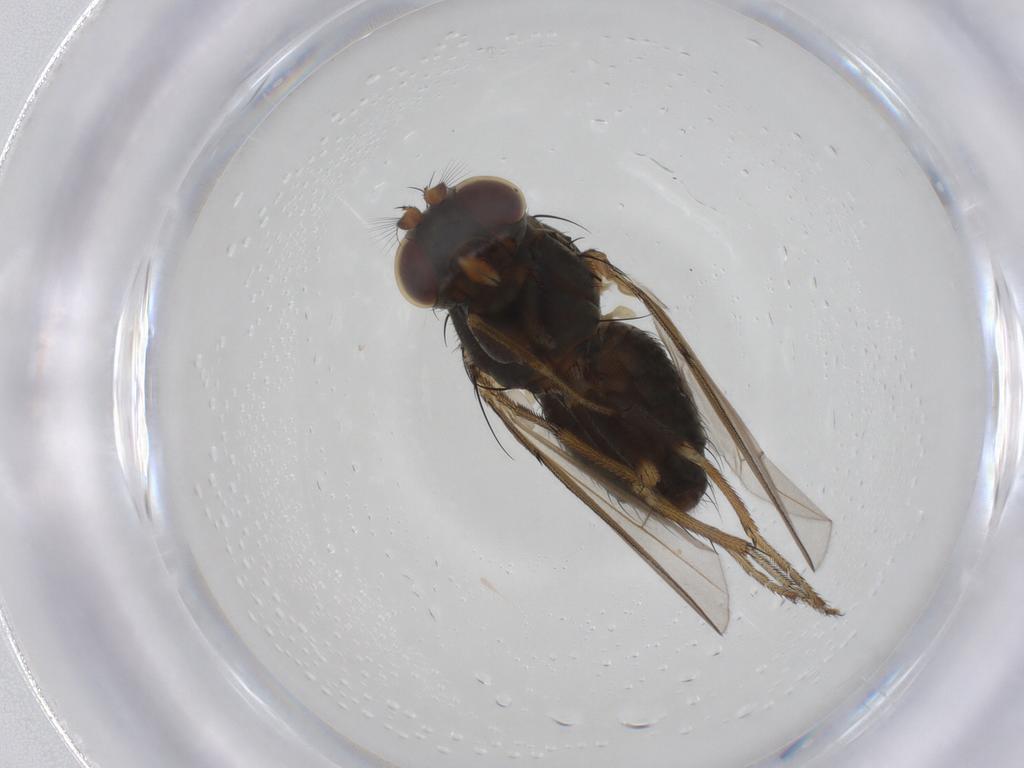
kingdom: Animalia
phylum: Arthropoda
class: Insecta
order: Diptera
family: Ephydridae
